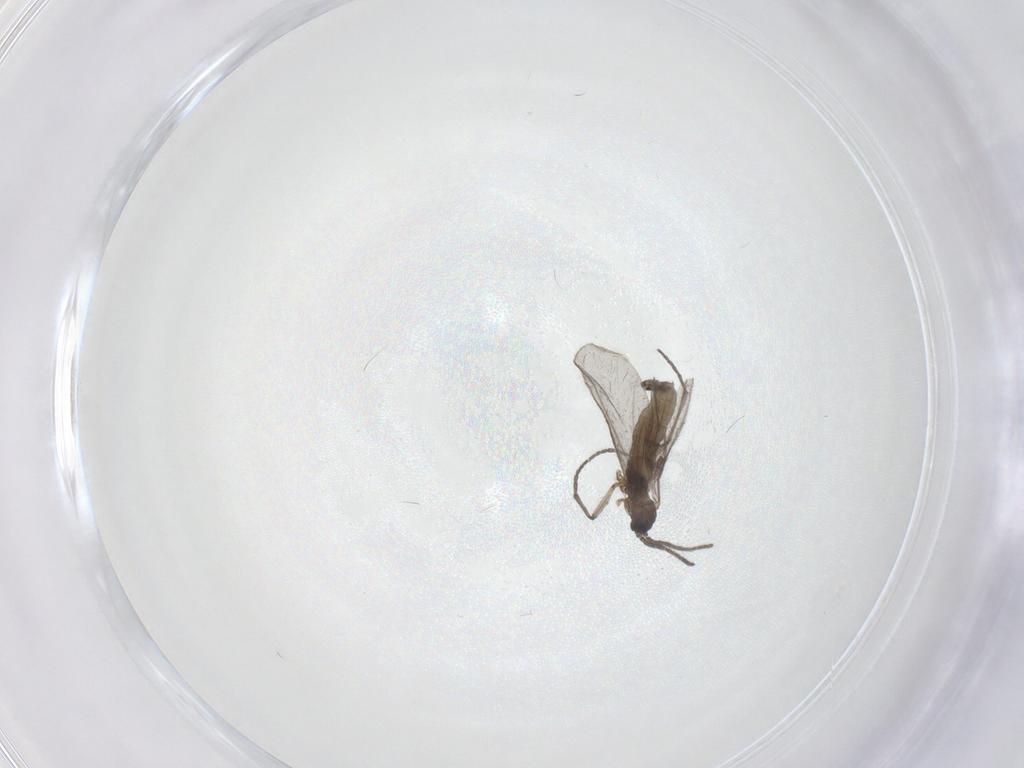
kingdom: Animalia
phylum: Arthropoda
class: Insecta
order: Diptera
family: Sciaridae
